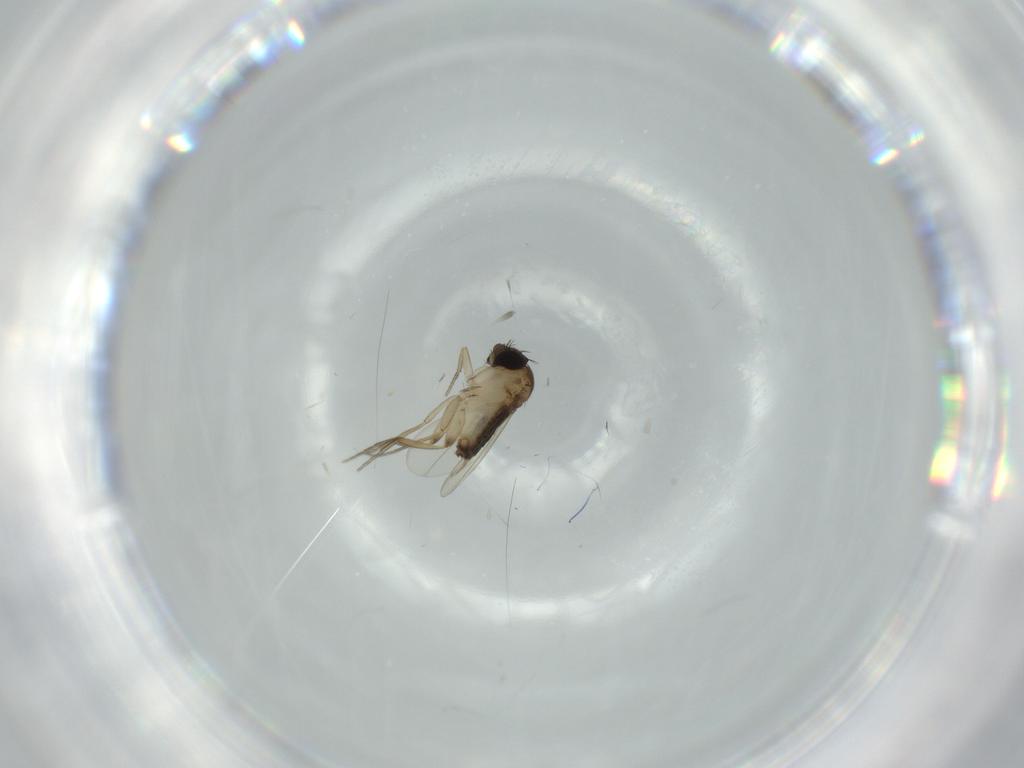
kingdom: Animalia
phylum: Arthropoda
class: Insecta
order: Diptera
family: Phoridae
